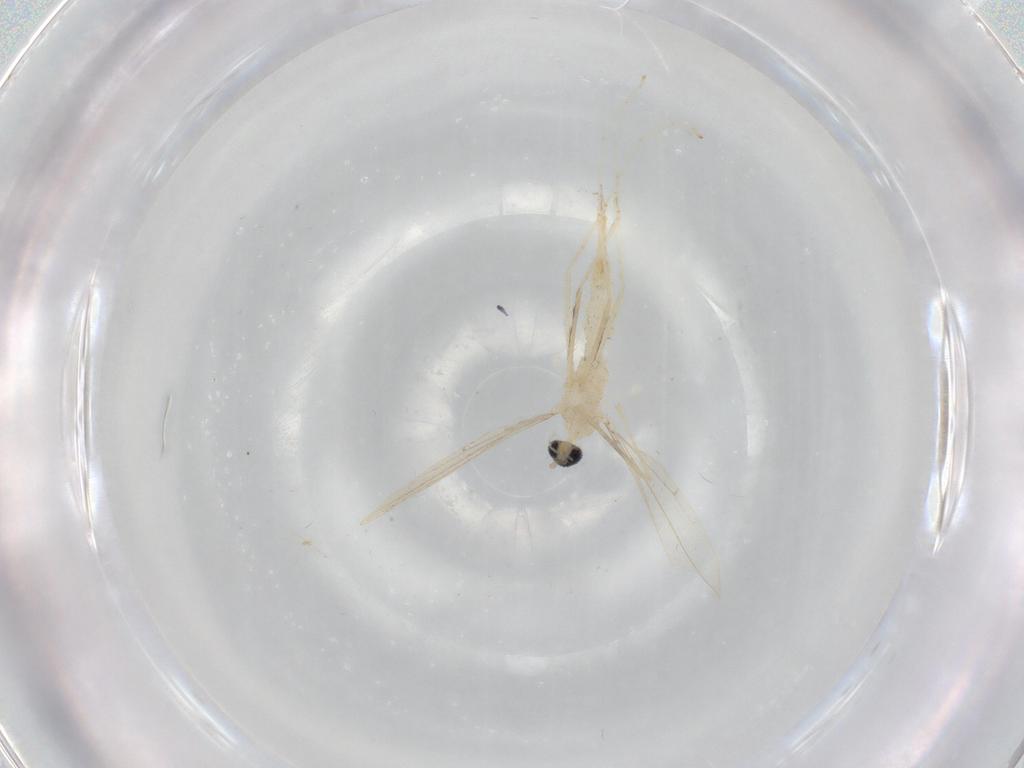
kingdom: Animalia
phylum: Arthropoda
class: Insecta
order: Diptera
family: Cecidomyiidae
